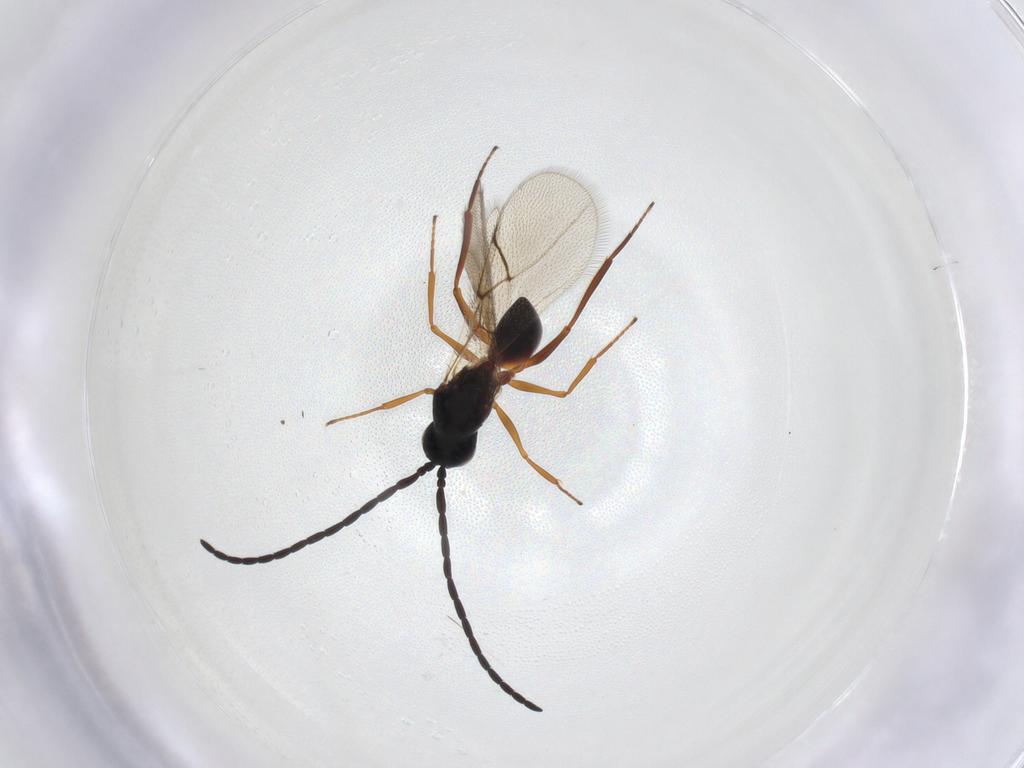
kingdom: Animalia
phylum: Arthropoda
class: Insecta
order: Hymenoptera
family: Figitidae
